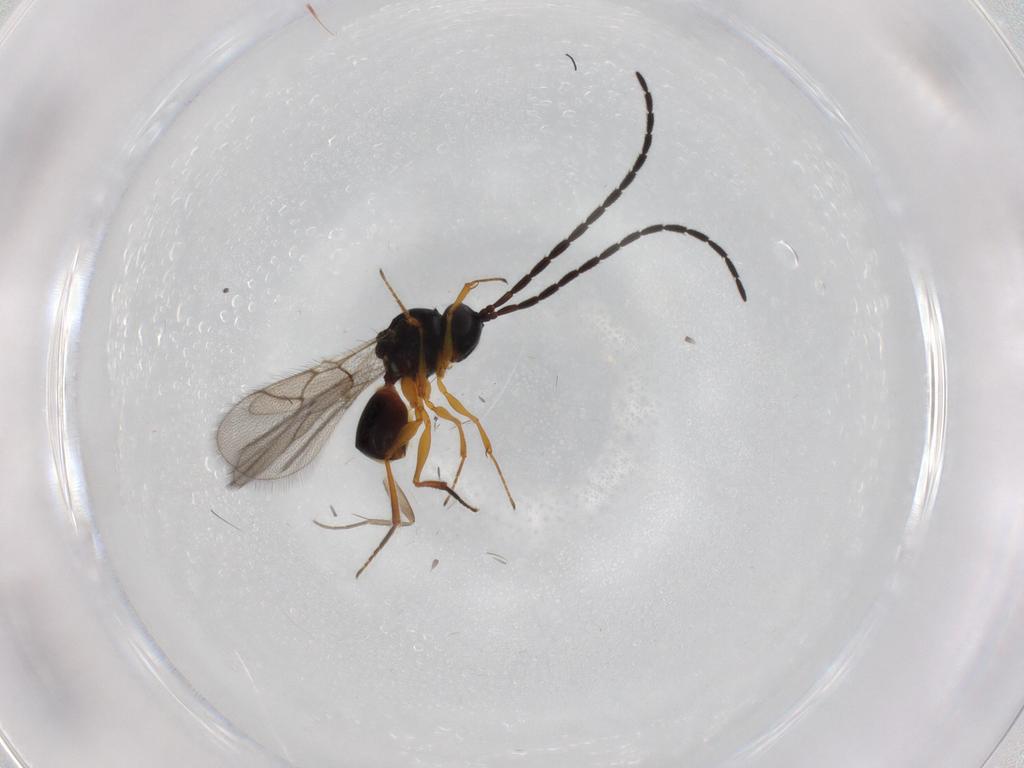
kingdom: Animalia
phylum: Arthropoda
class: Insecta
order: Hymenoptera
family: Figitidae
